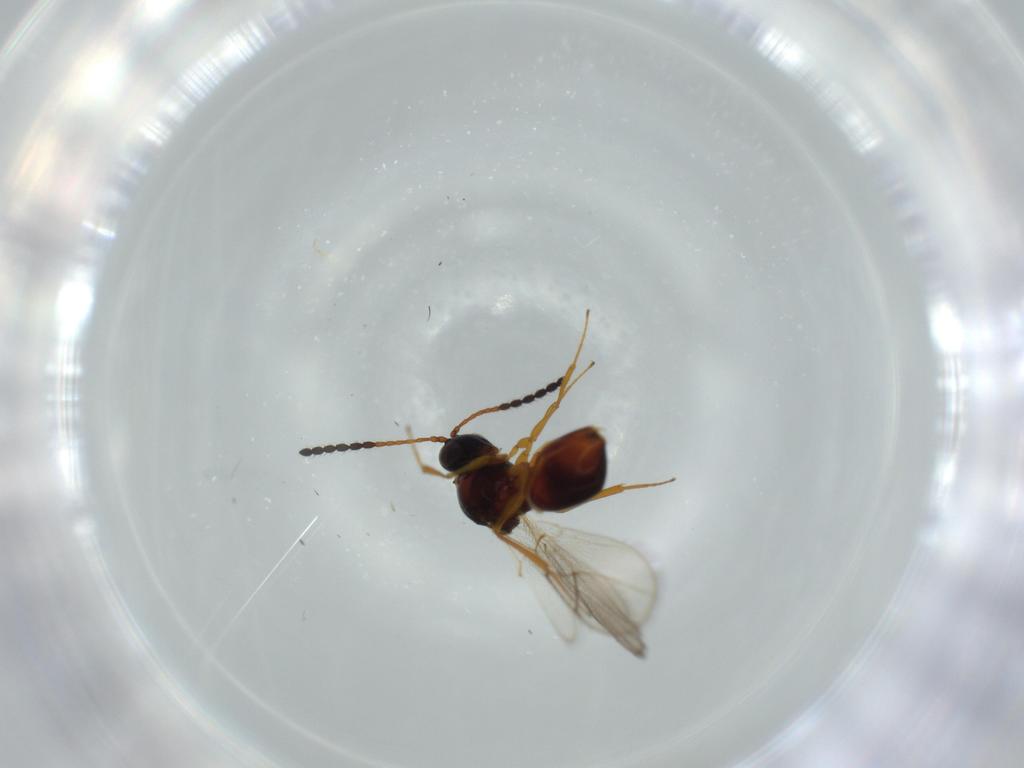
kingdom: Animalia
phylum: Arthropoda
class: Insecta
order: Hymenoptera
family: Figitidae
